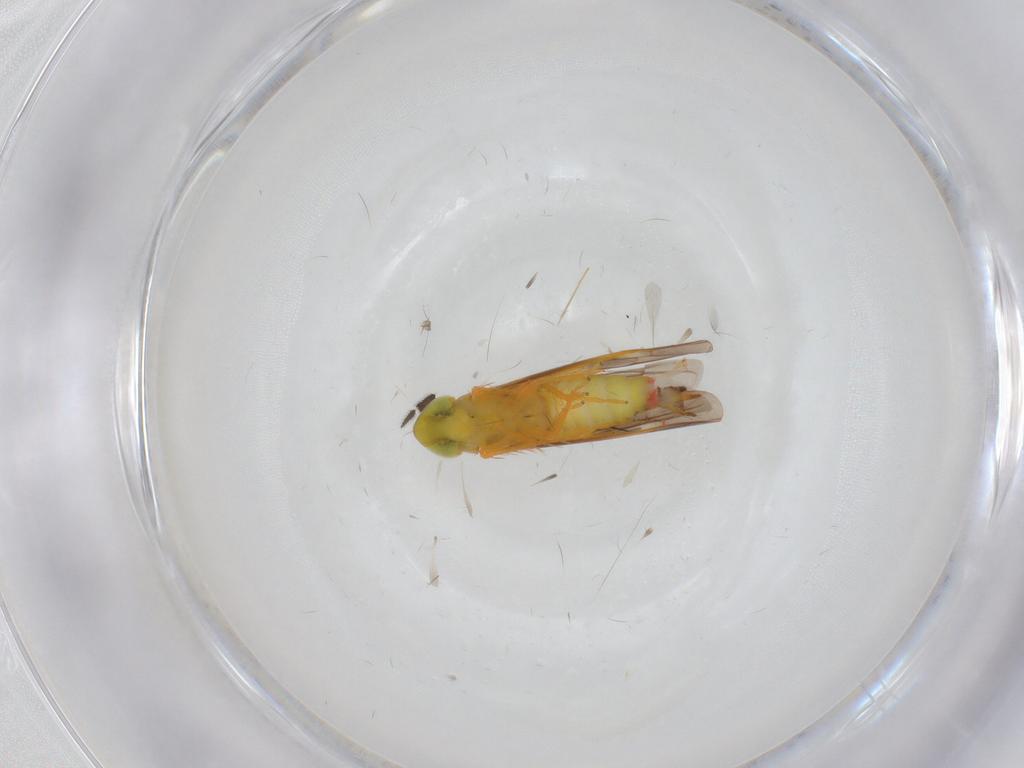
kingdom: Animalia
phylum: Arthropoda
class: Insecta
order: Hemiptera
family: Cicadellidae
